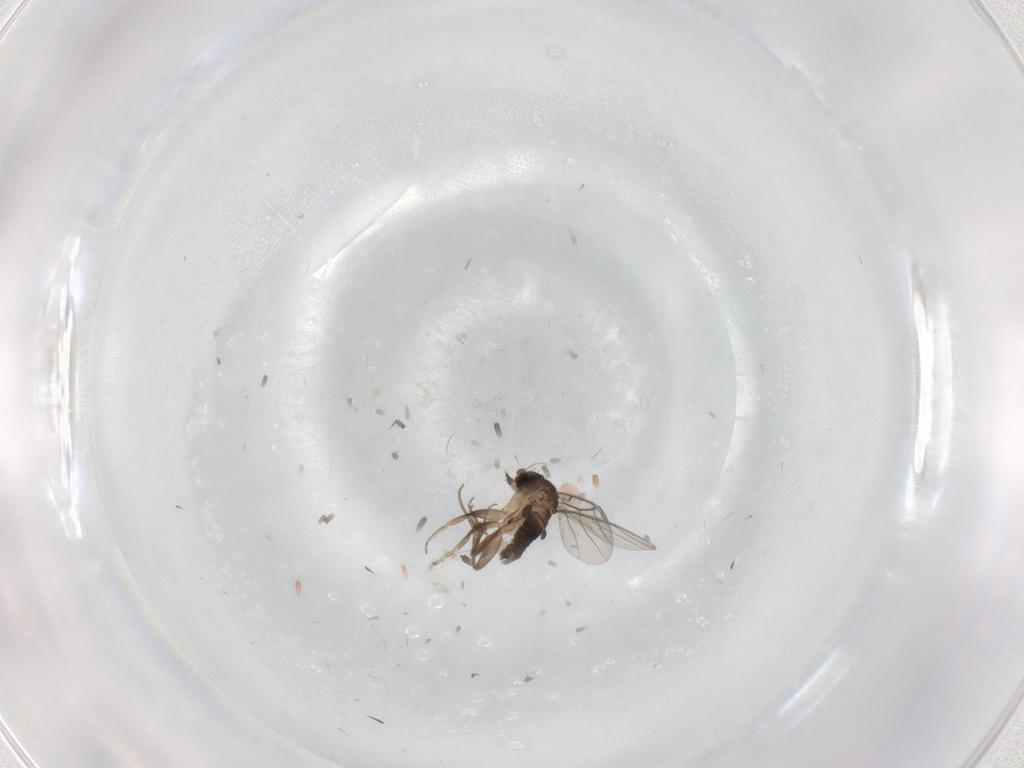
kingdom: Animalia
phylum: Arthropoda
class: Insecta
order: Diptera
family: Phoridae
